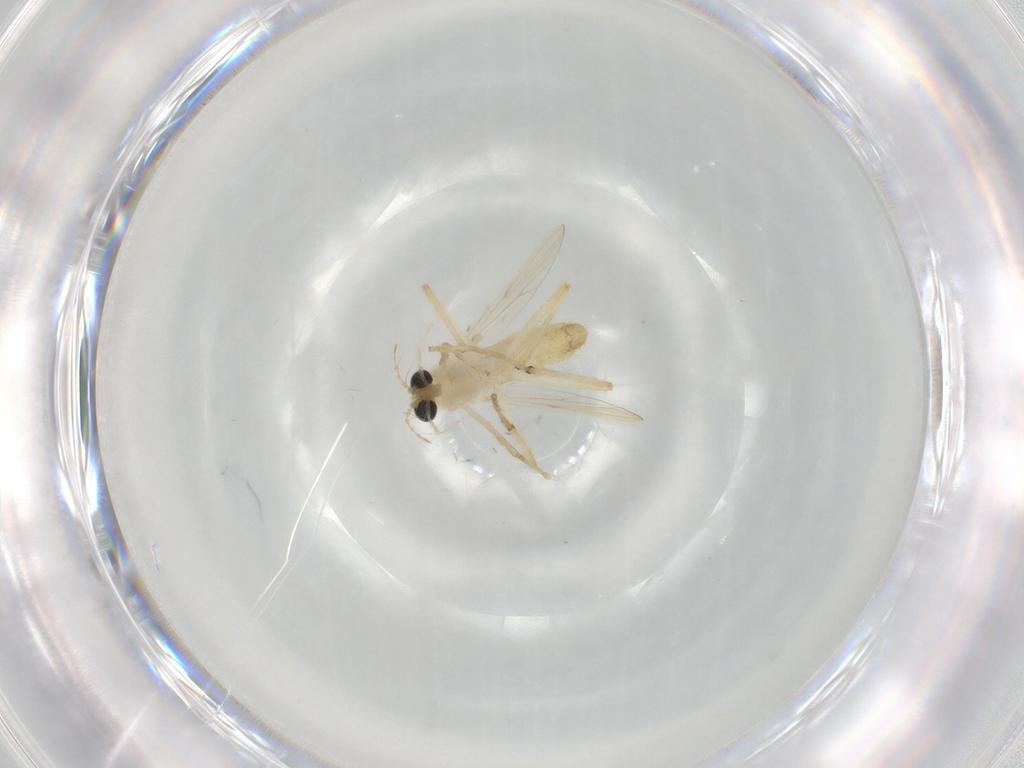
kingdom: Animalia
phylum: Arthropoda
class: Insecta
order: Diptera
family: Chironomidae
